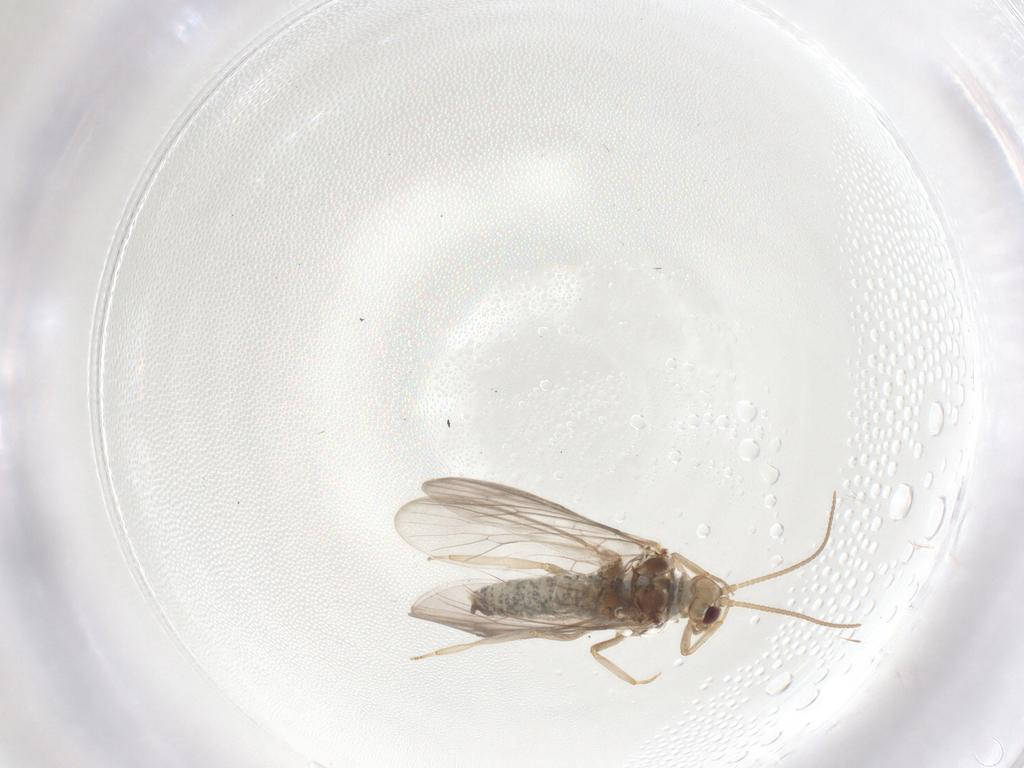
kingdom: Animalia
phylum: Arthropoda
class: Insecta
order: Neuroptera
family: Coniopterygidae
